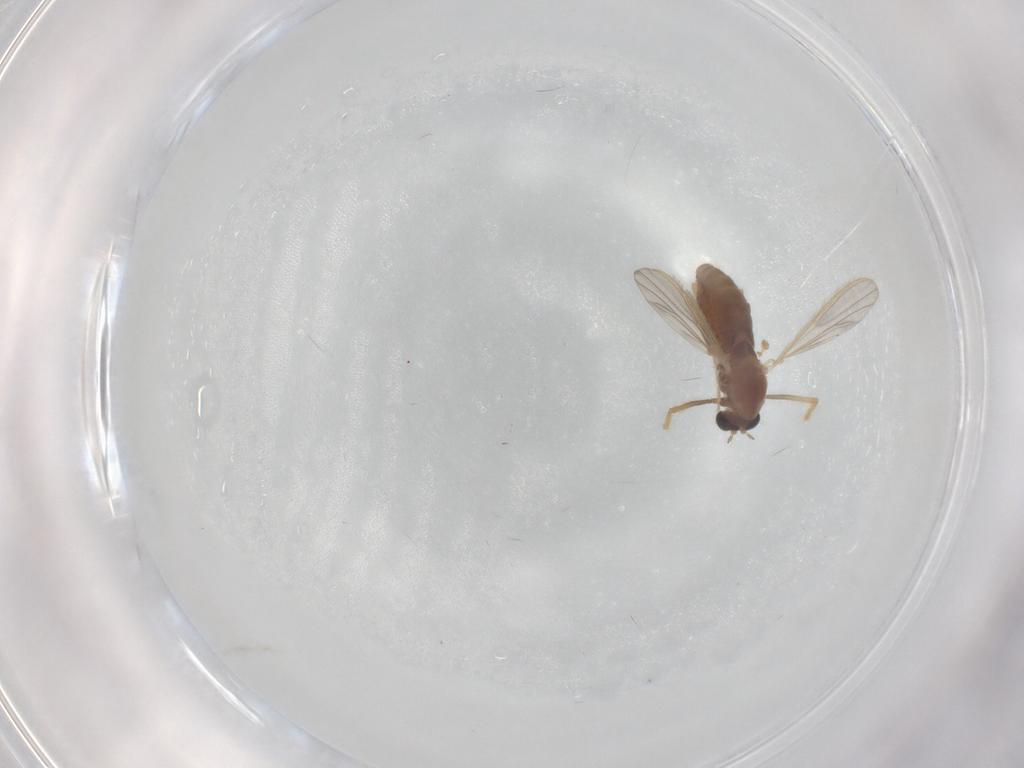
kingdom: Animalia
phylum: Arthropoda
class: Insecta
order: Diptera
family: Chironomidae
